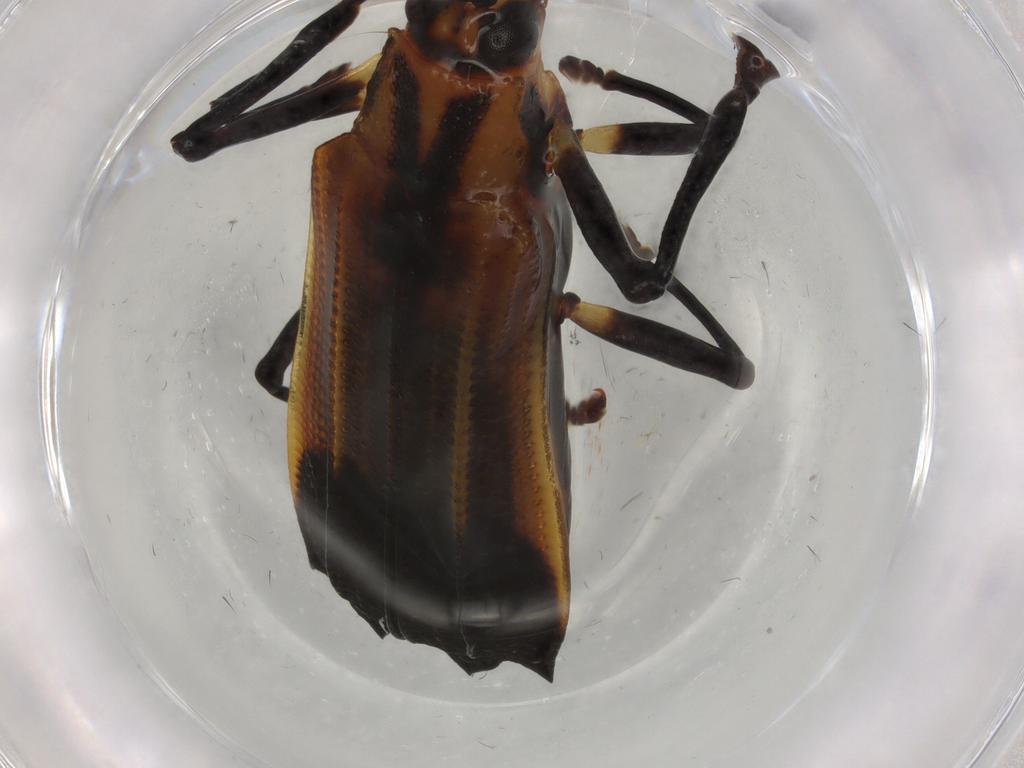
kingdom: Animalia
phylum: Arthropoda
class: Insecta
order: Coleoptera
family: Chrysomelidae
